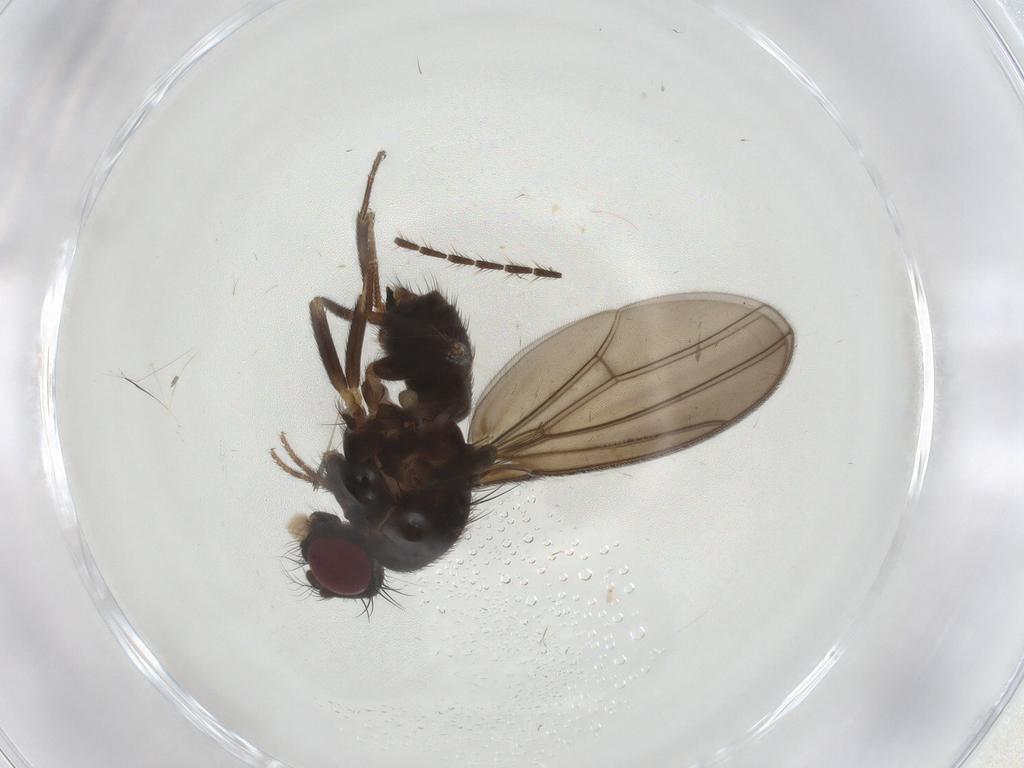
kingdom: Animalia
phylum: Arthropoda
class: Insecta
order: Diptera
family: Drosophilidae
